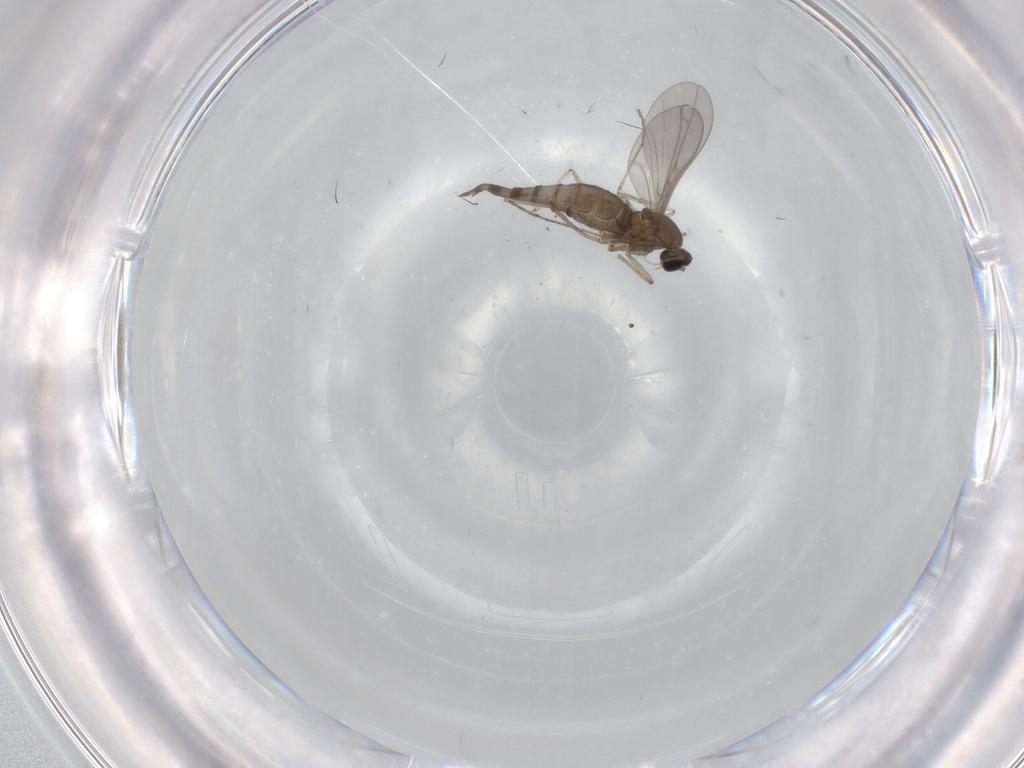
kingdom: Animalia
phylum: Arthropoda
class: Insecta
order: Diptera
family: Cecidomyiidae
